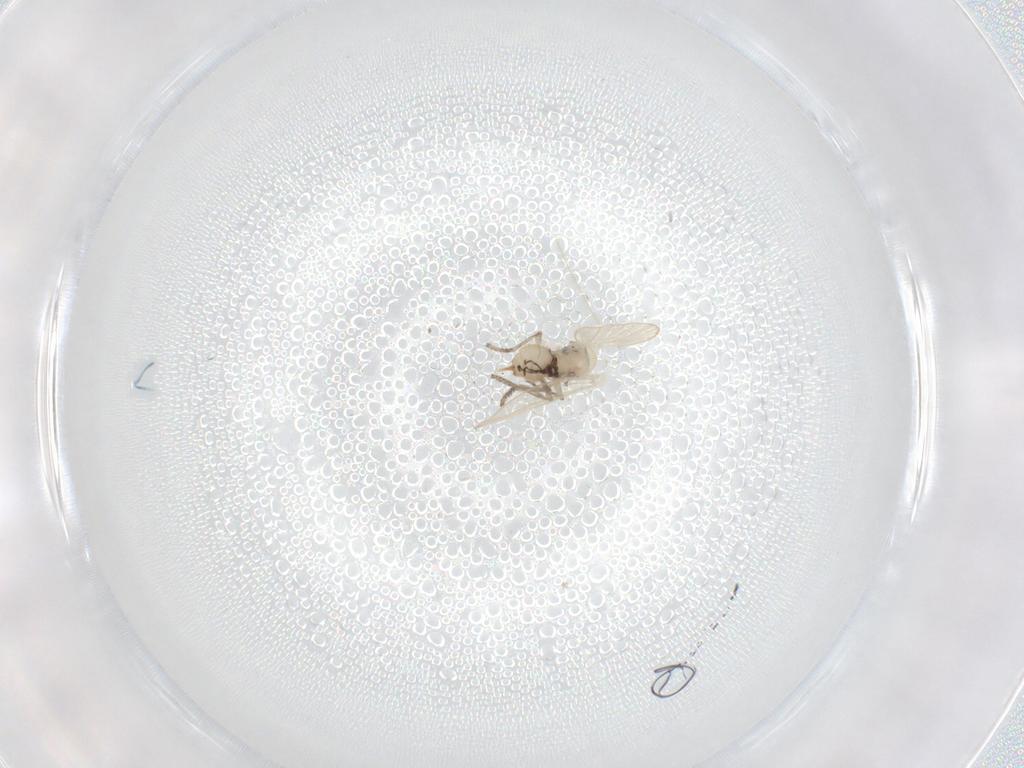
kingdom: Animalia
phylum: Arthropoda
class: Insecta
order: Diptera
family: Psychodidae
